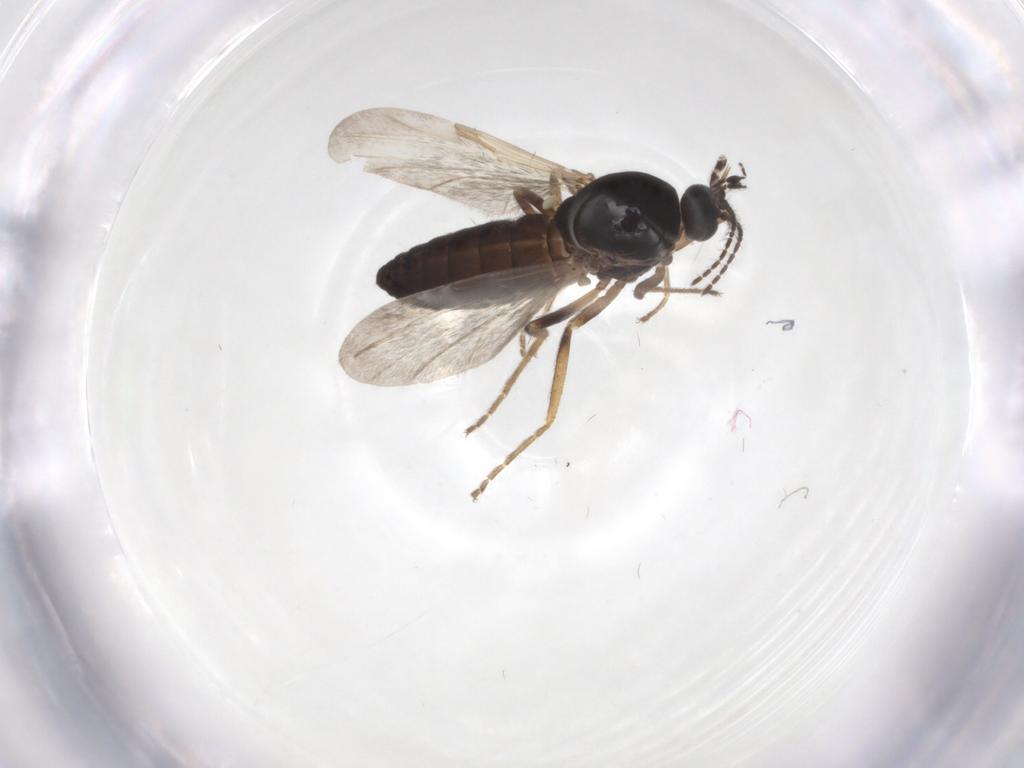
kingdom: Animalia
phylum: Arthropoda
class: Insecta
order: Diptera
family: Ceratopogonidae
